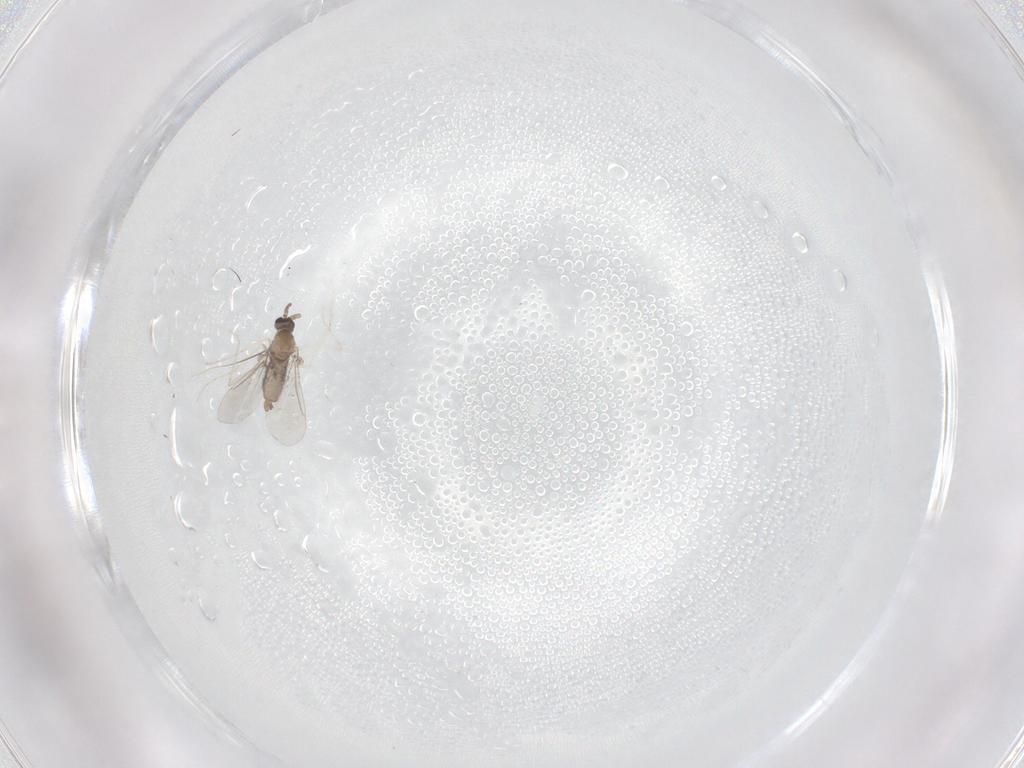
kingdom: Animalia
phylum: Arthropoda
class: Insecta
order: Diptera
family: Cecidomyiidae
